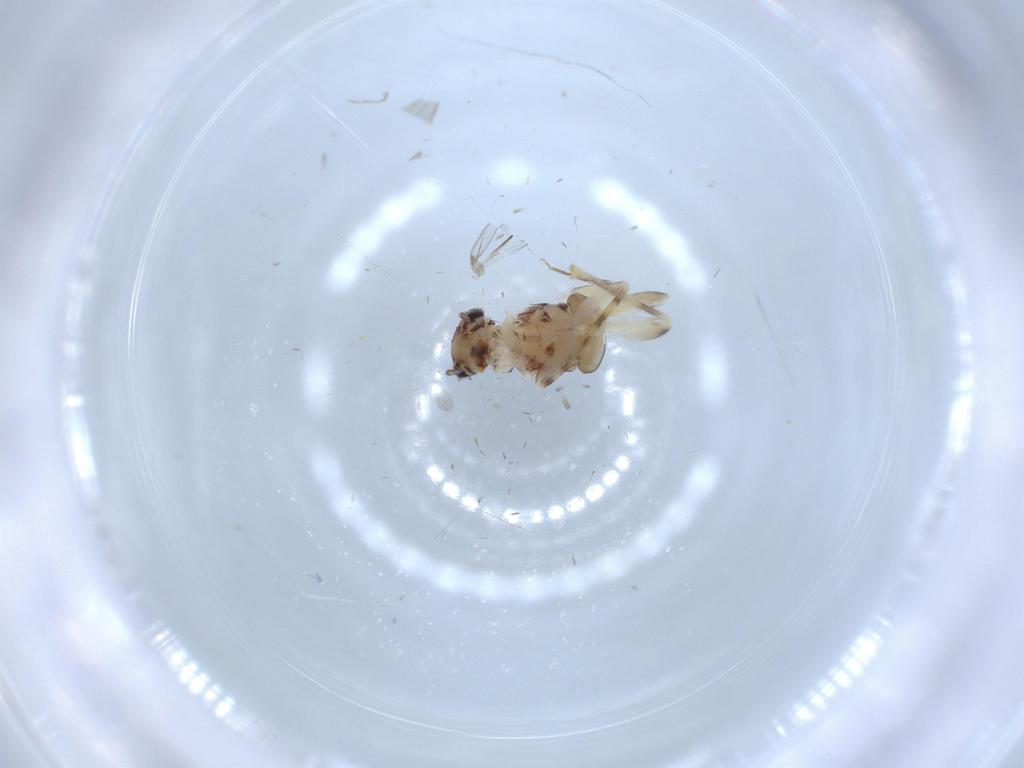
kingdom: Animalia
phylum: Arthropoda
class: Insecta
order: Psocodea
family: Lepidopsocidae
